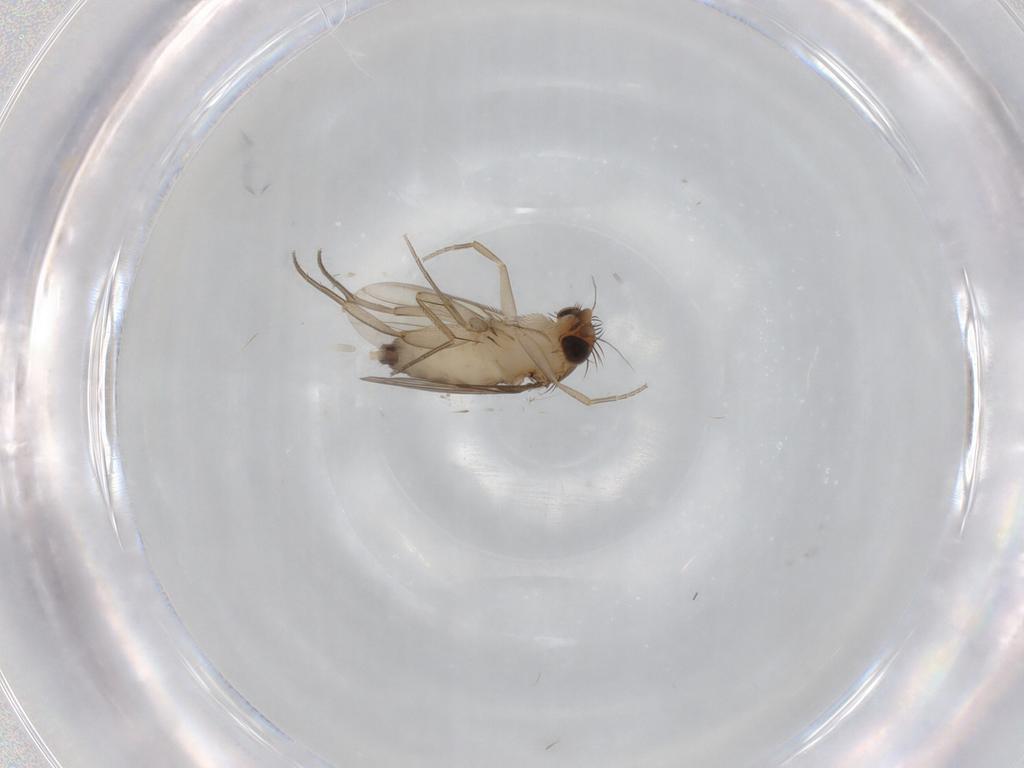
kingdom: Animalia
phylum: Arthropoda
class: Insecta
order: Diptera
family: Phoridae
